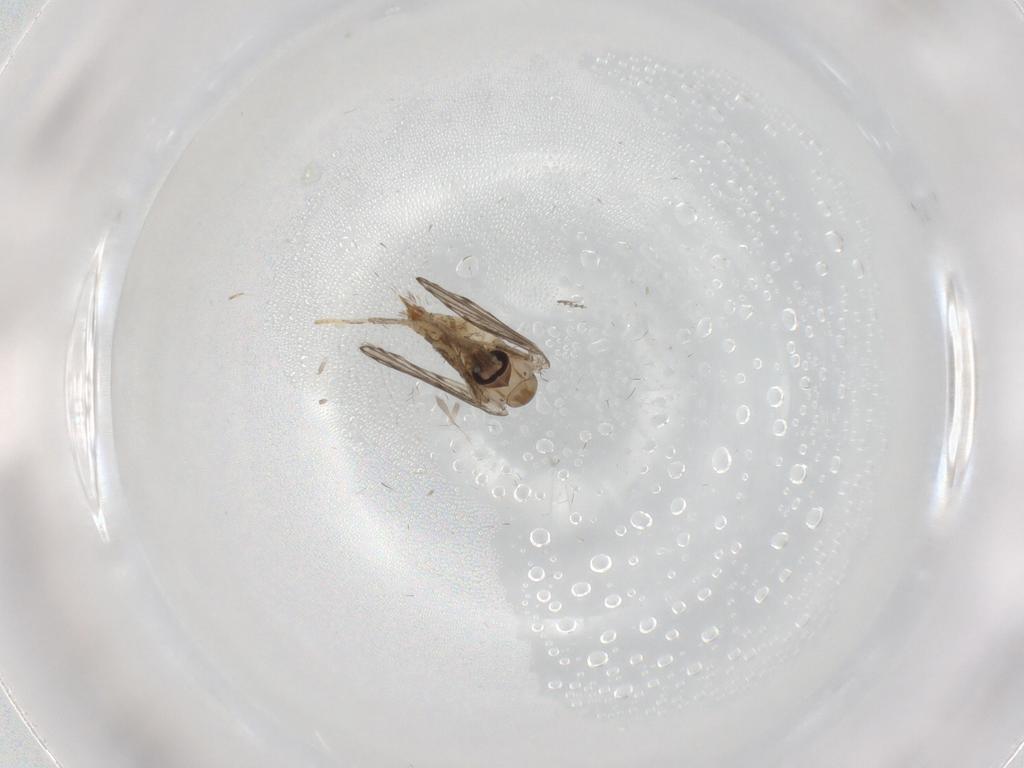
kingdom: Animalia
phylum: Arthropoda
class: Insecta
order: Diptera
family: Psychodidae
